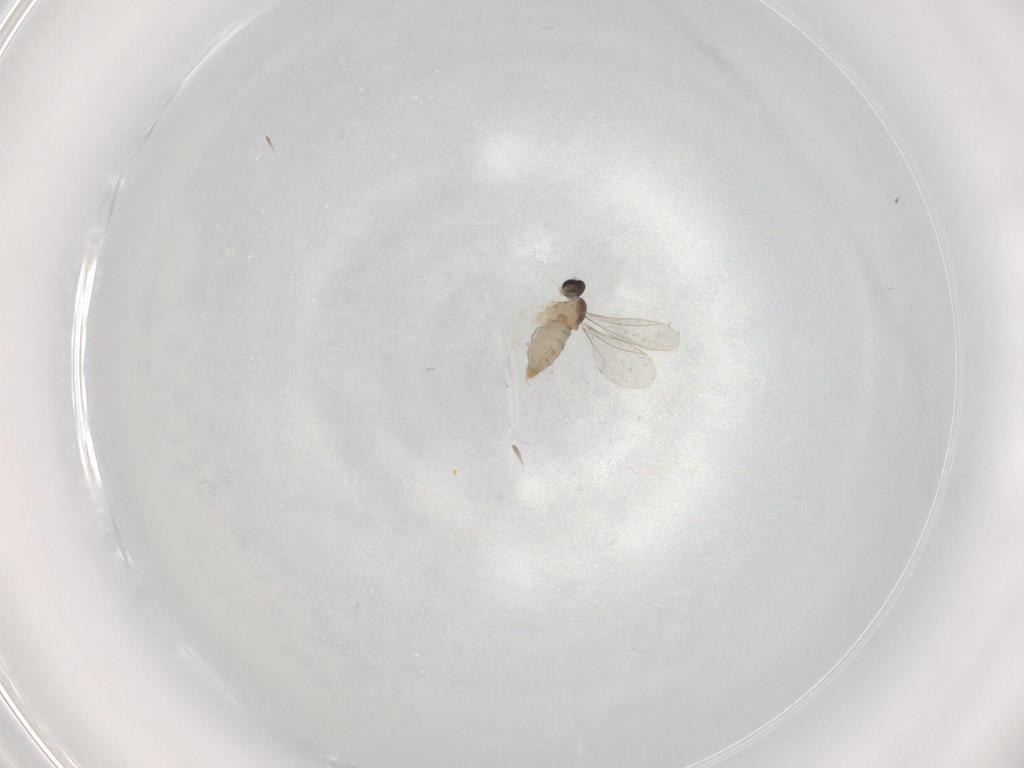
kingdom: Animalia
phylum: Arthropoda
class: Insecta
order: Diptera
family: Cecidomyiidae
